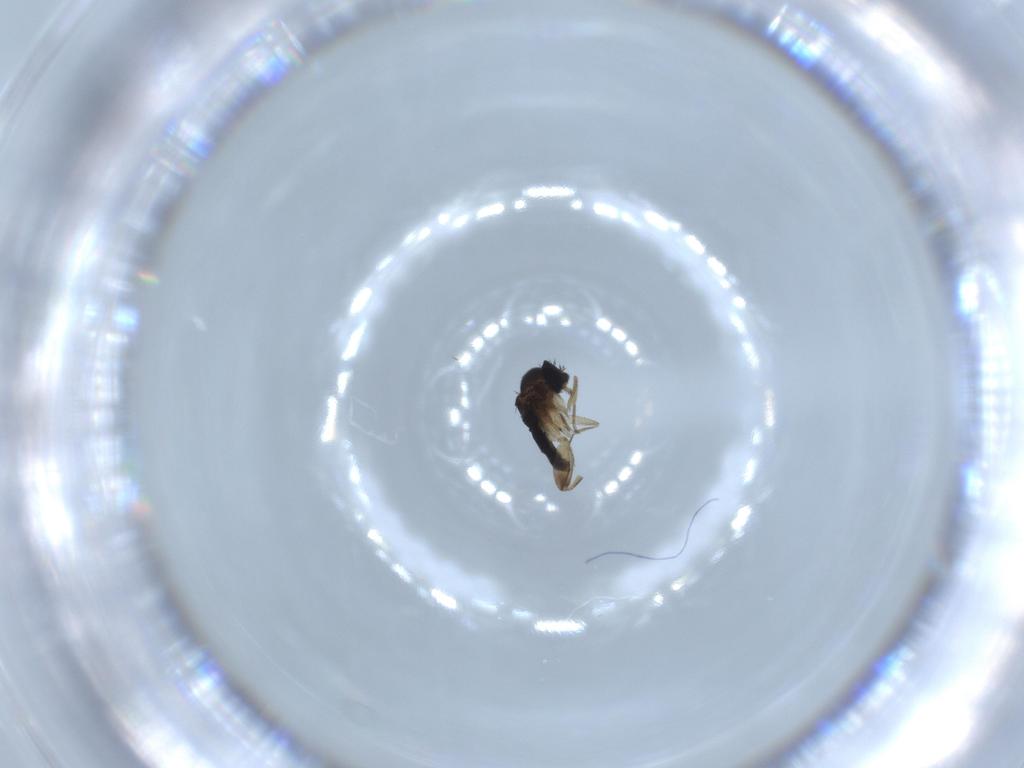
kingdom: Animalia
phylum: Arthropoda
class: Insecta
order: Diptera
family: Phoridae
